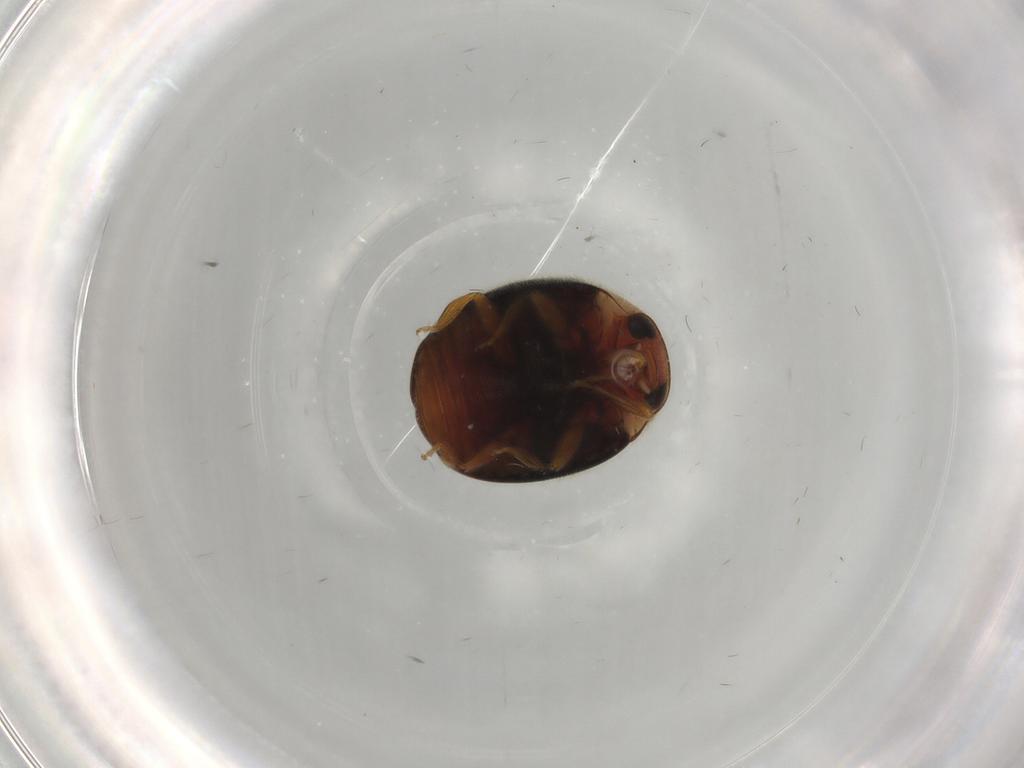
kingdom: Animalia
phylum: Arthropoda
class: Insecta
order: Coleoptera
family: Coccinellidae
